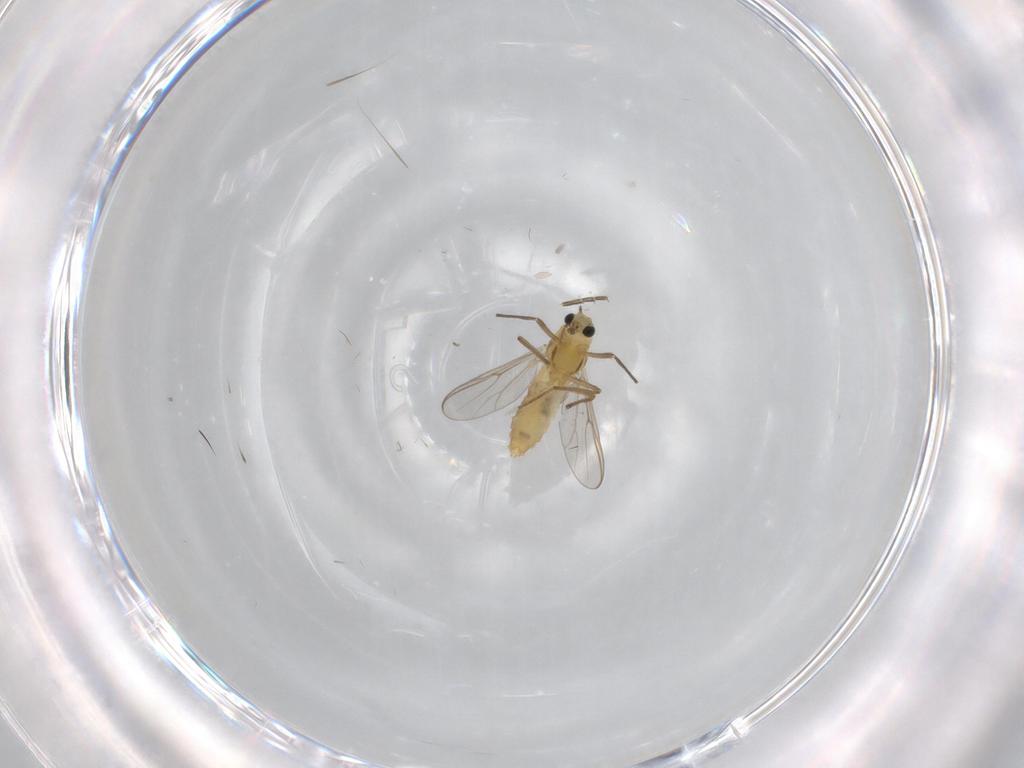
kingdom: Animalia
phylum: Arthropoda
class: Insecta
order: Diptera
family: Chironomidae
